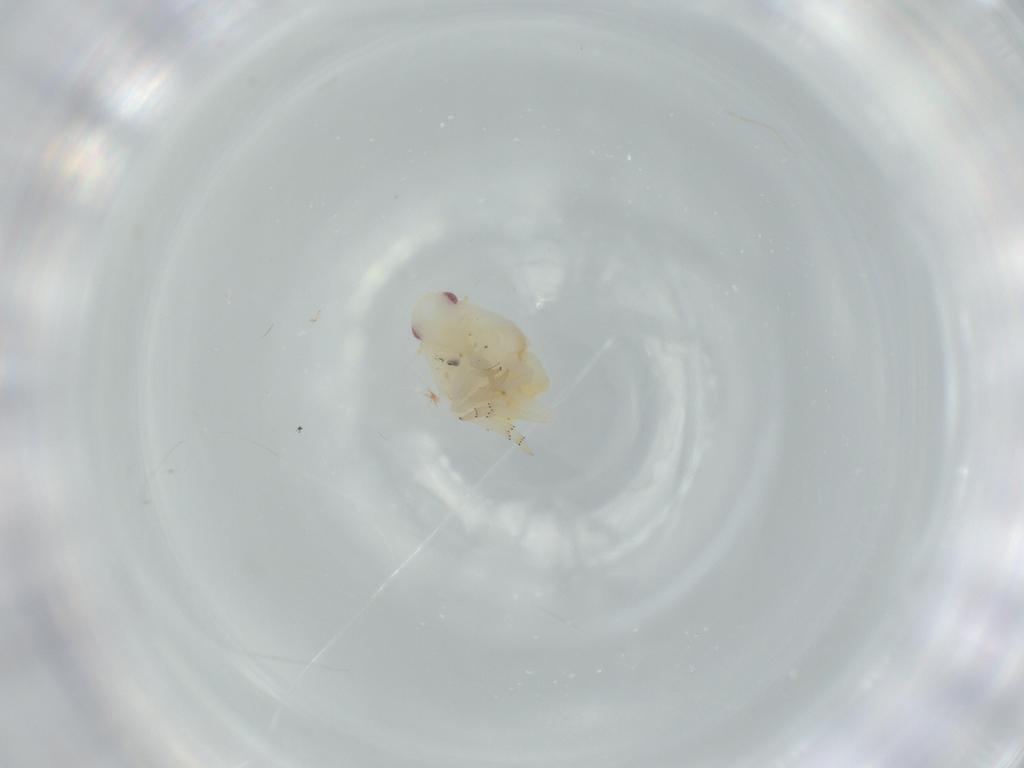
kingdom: Animalia
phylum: Arthropoda
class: Insecta
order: Hemiptera
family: Flatidae
